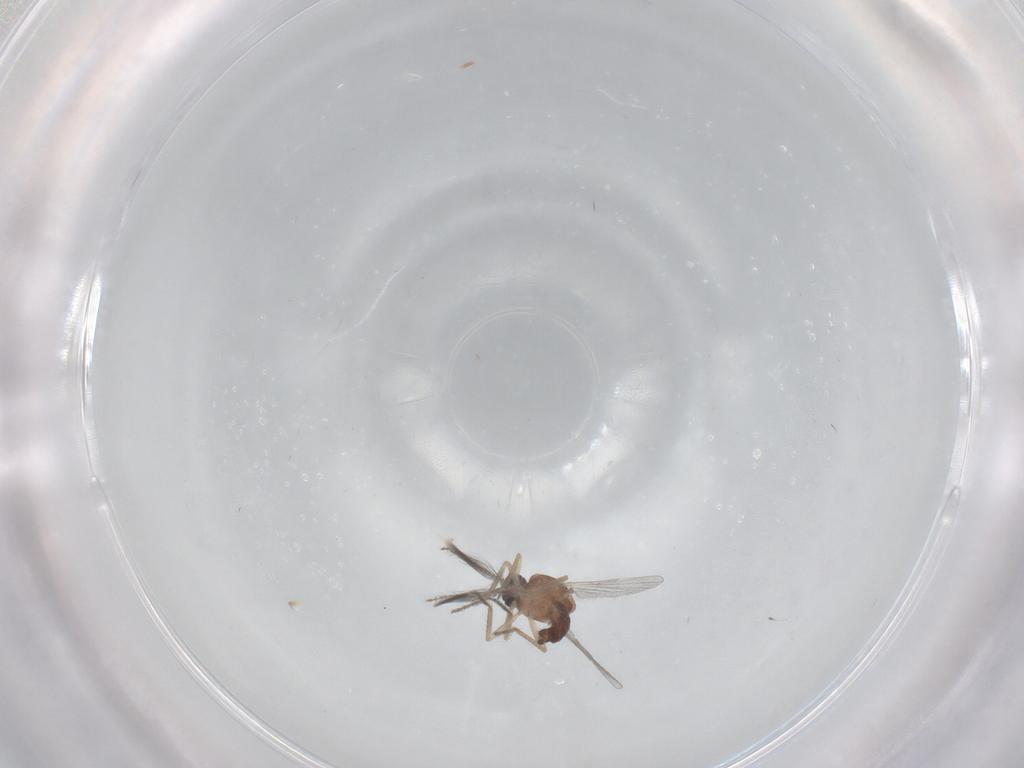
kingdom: Animalia
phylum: Arthropoda
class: Insecta
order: Diptera
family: Ceratopogonidae
